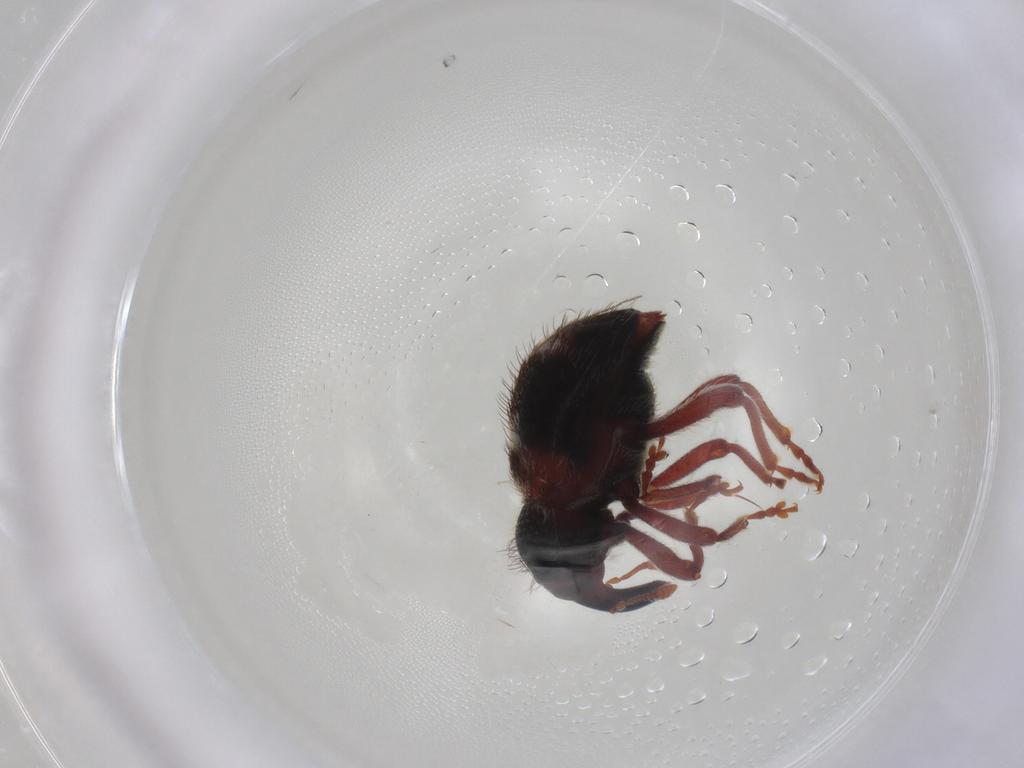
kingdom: Animalia
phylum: Arthropoda
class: Insecta
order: Coleoptera
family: Curculionidae
